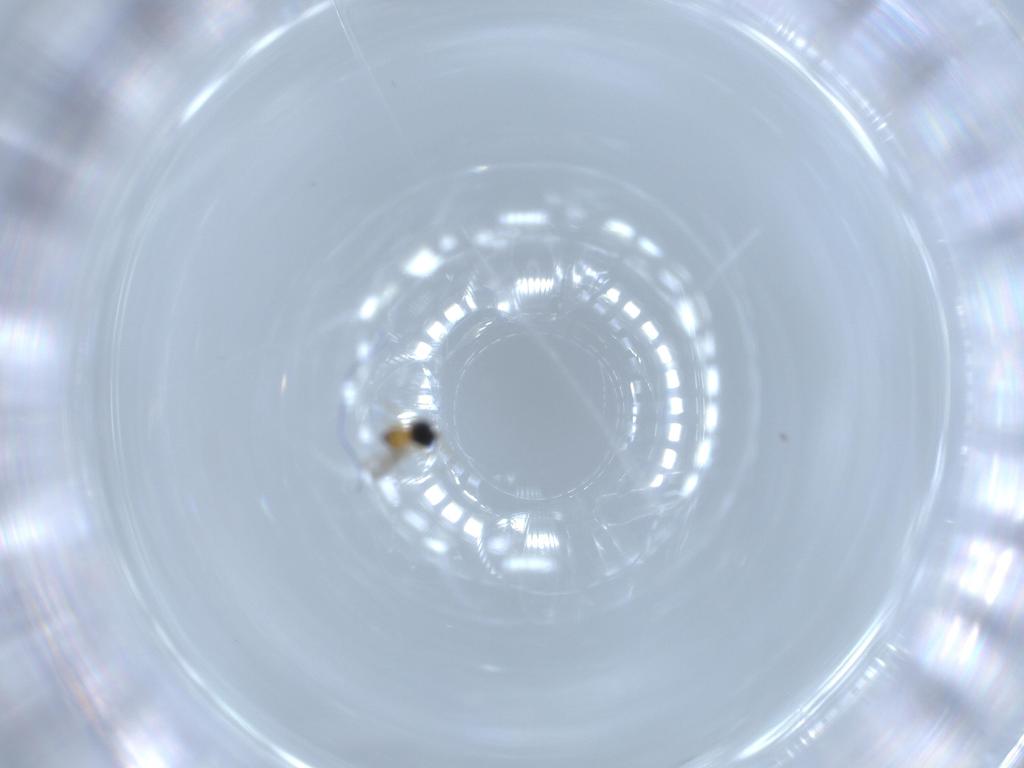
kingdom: Animalia
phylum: Arthropoda
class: Insecta
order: Hymenoptera
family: Scelionidae
